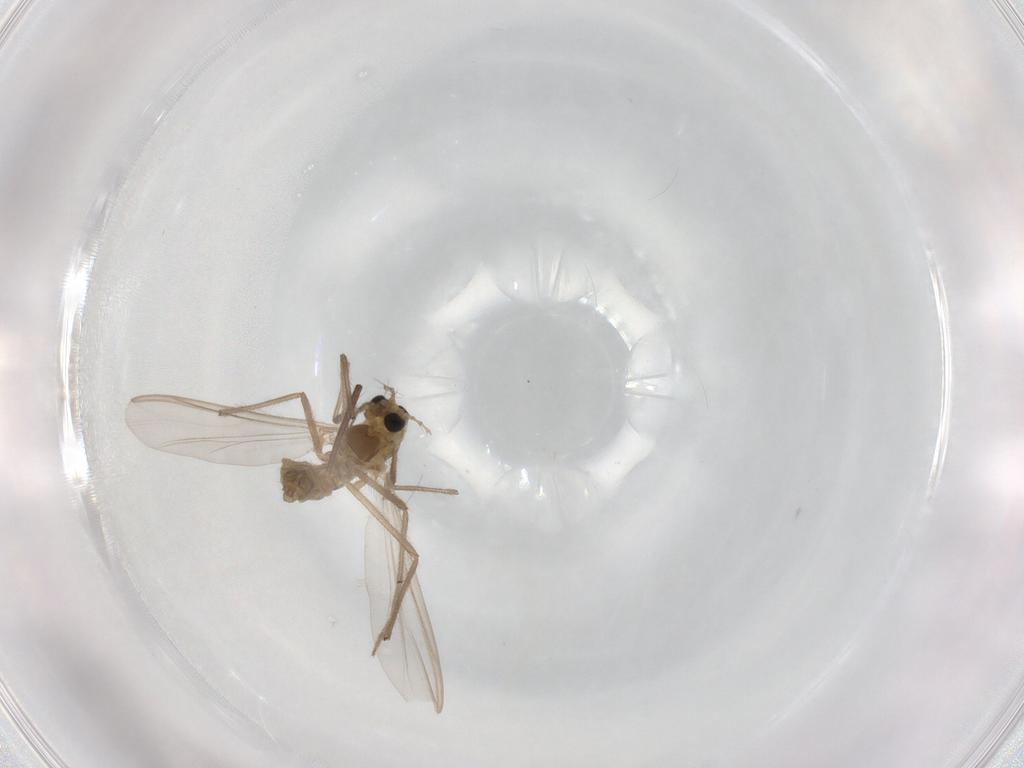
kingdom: Animalia
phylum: Arthropoda
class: Insecta
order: Diptera
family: Chironomidae
